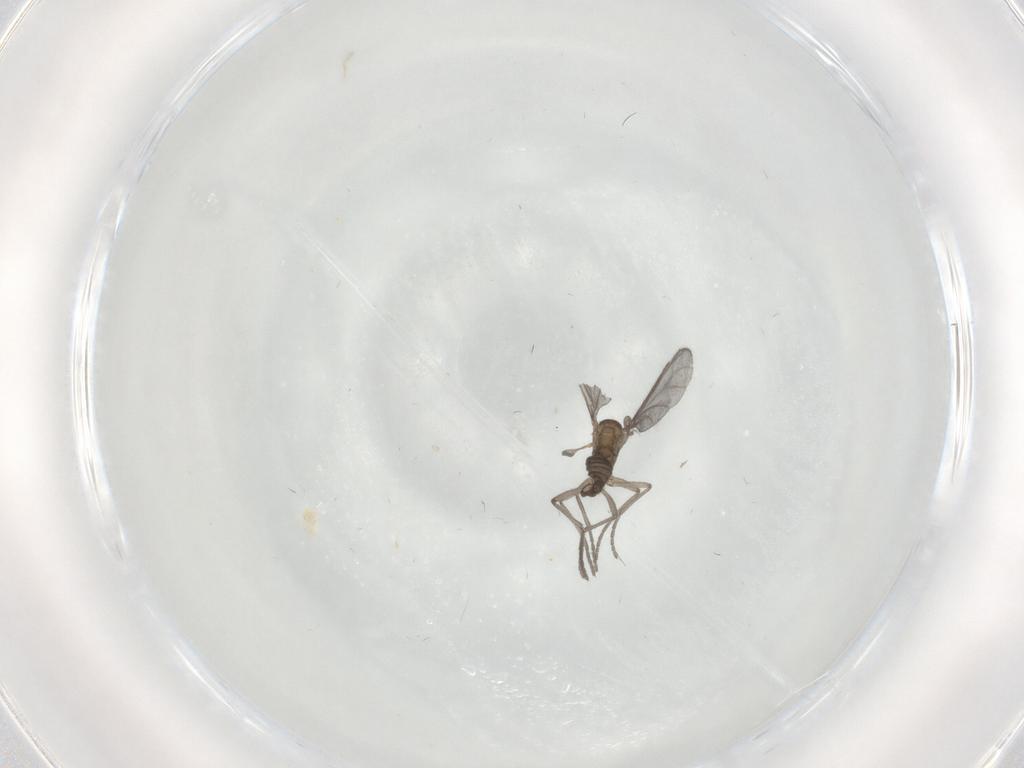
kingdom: Animalia
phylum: Arthropoda
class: Insecta
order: Diptera
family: Sciaridae
